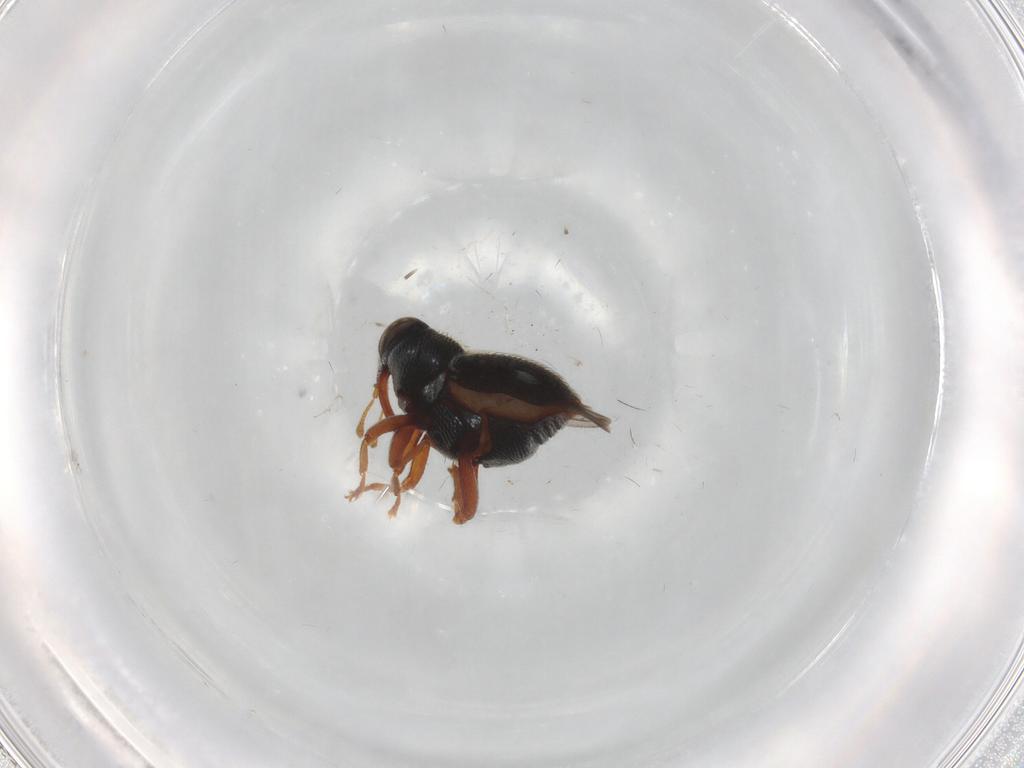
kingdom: Animalia
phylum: Arthropoda
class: Insecta
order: Coleoptera
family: Curculionidae
